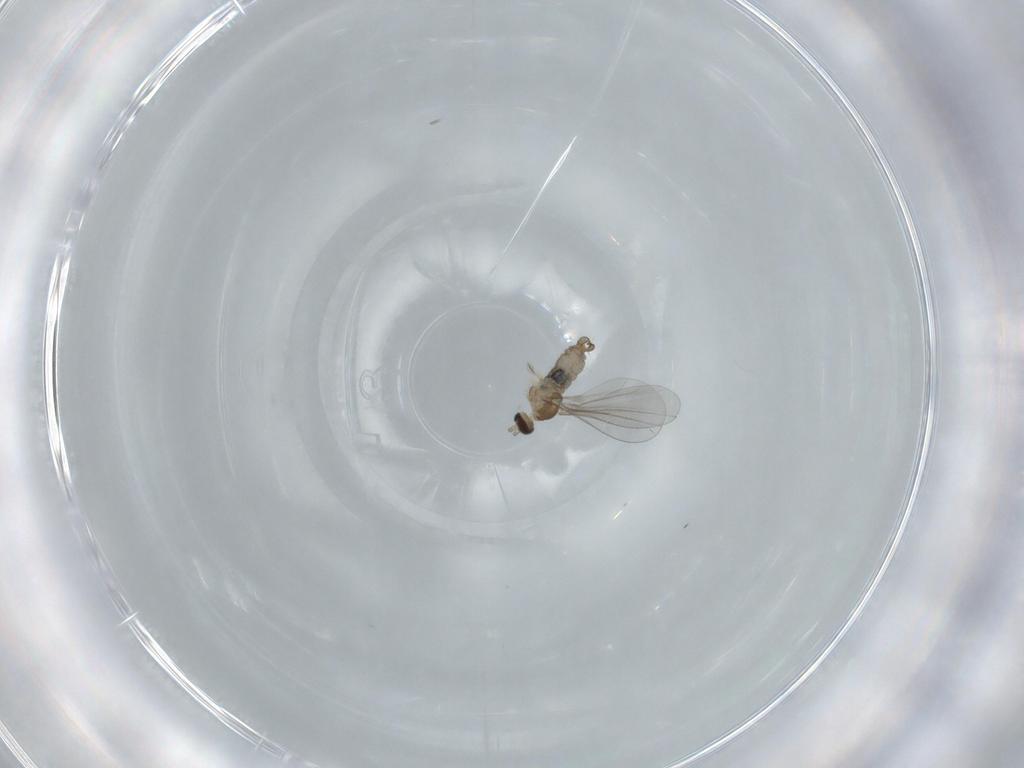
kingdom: Animalia
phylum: Arthropoda
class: Insecta
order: Diptera
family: Cecidomyiidae
